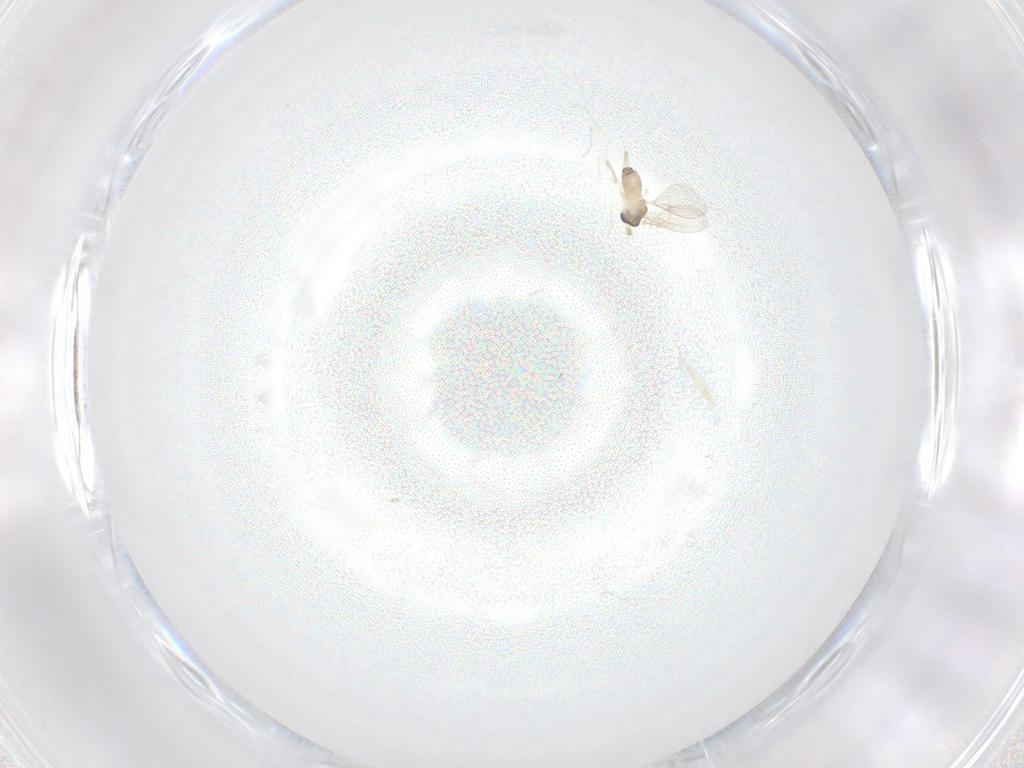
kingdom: Animalia
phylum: Arthropoda
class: Insecta
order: Diptera
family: Cecidomyiidae
